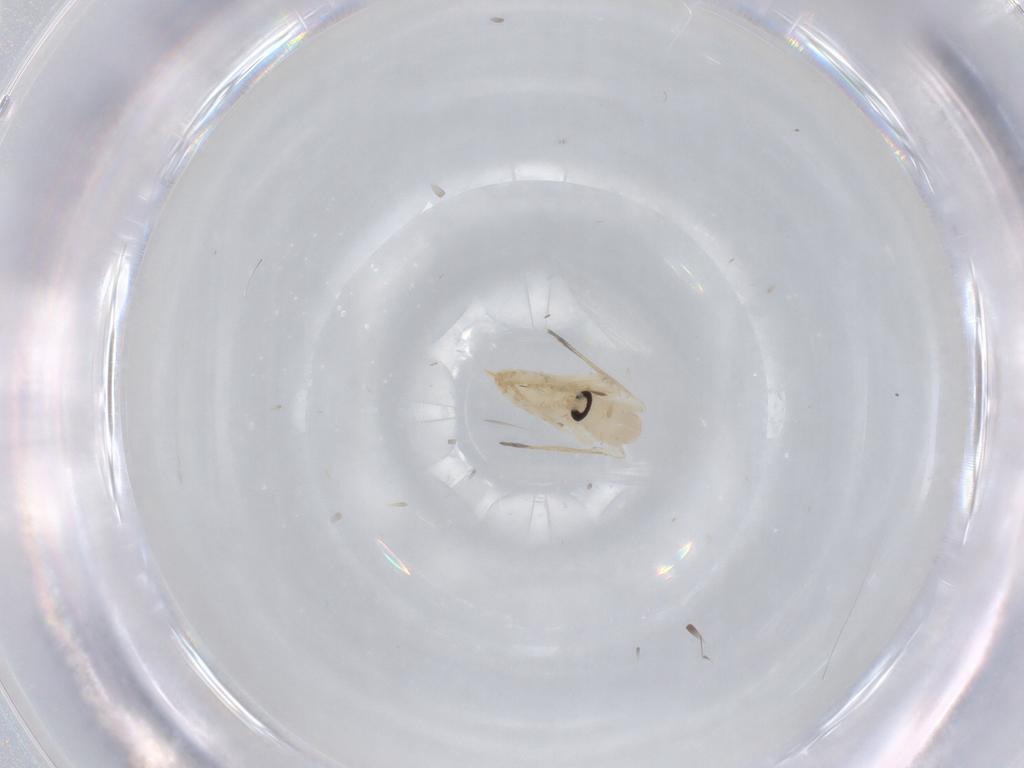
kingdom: Animalia
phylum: Arthropoda
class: Insecta
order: Diptera
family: Psychodidae
